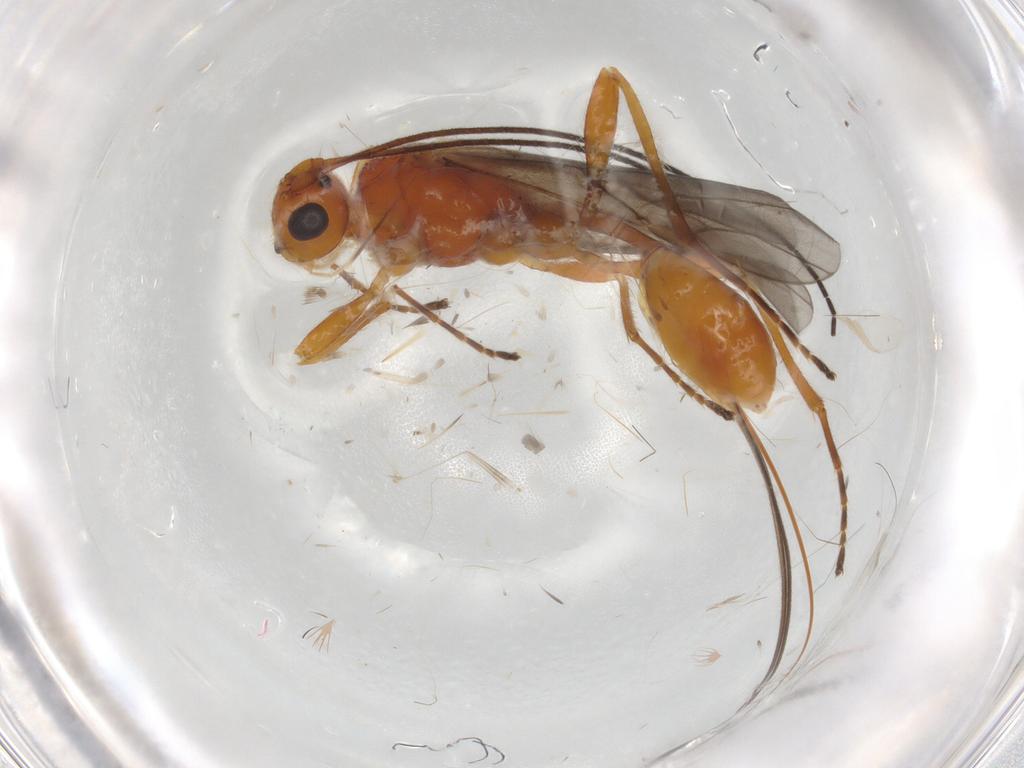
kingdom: Animalia
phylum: Arthropoda
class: Insecta
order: Hymenoptera
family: Braconidae
